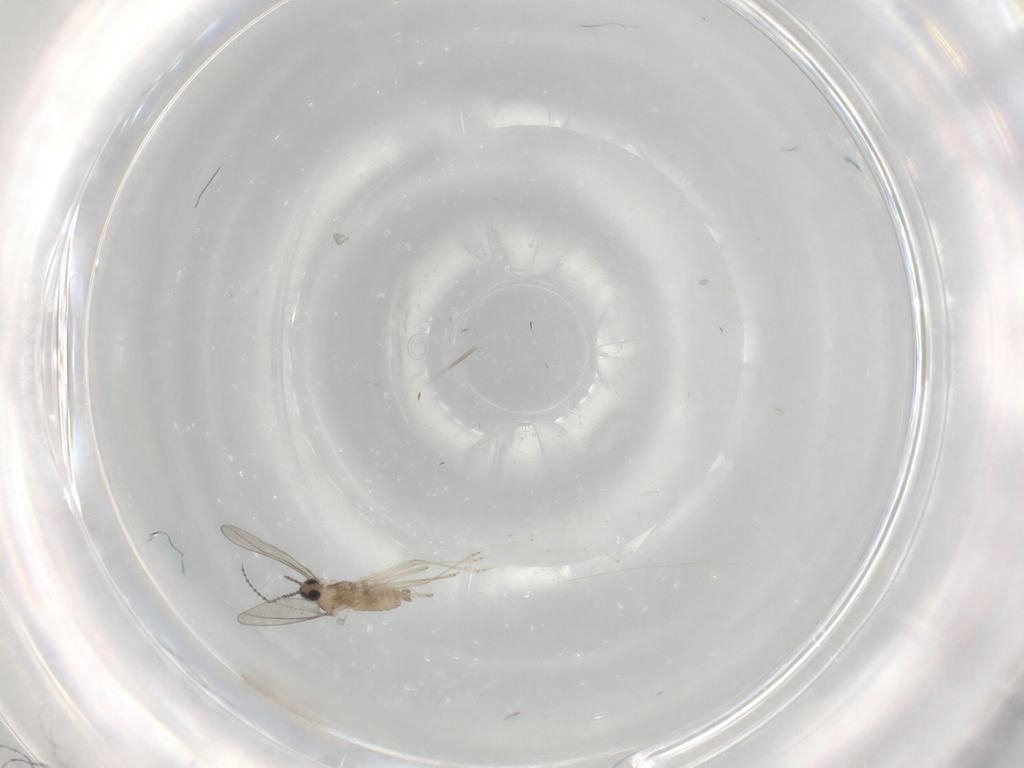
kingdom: Animalia
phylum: Arthropoda
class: Insecta
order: Diptera
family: Limoniidae
